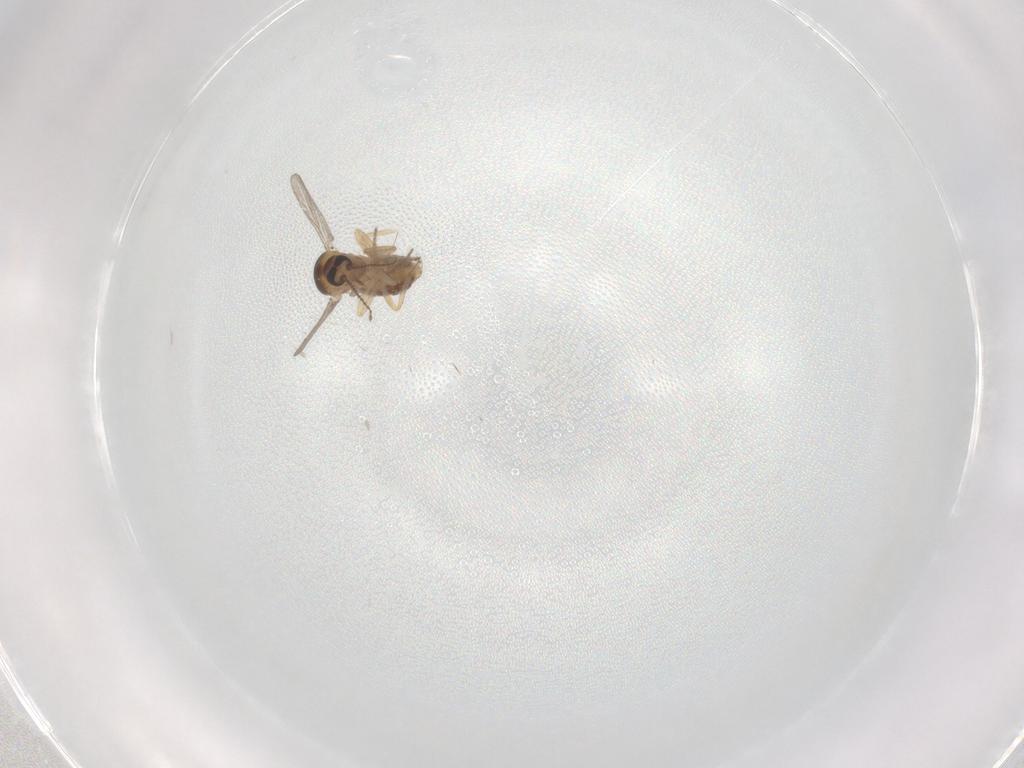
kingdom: Animalia
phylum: Arthropoda
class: Insecta
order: Diptera
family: Ceratopogonidae
